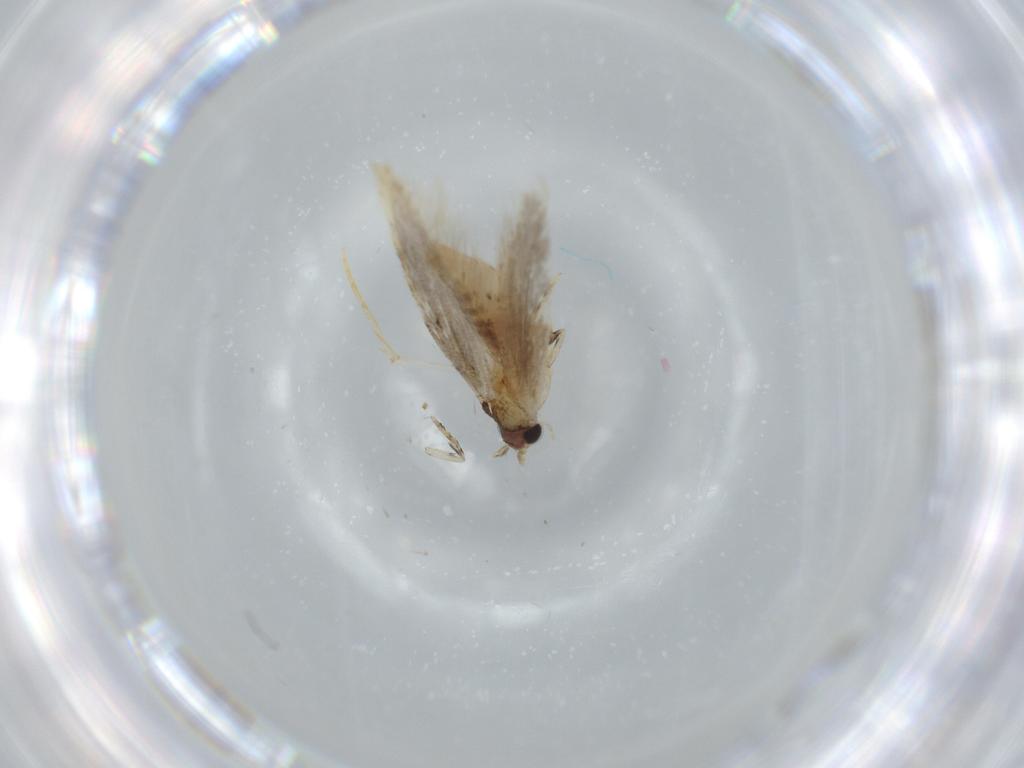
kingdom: Animalia
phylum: Arthropoda
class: Insecta
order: Lepidoptera
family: Tineidae
